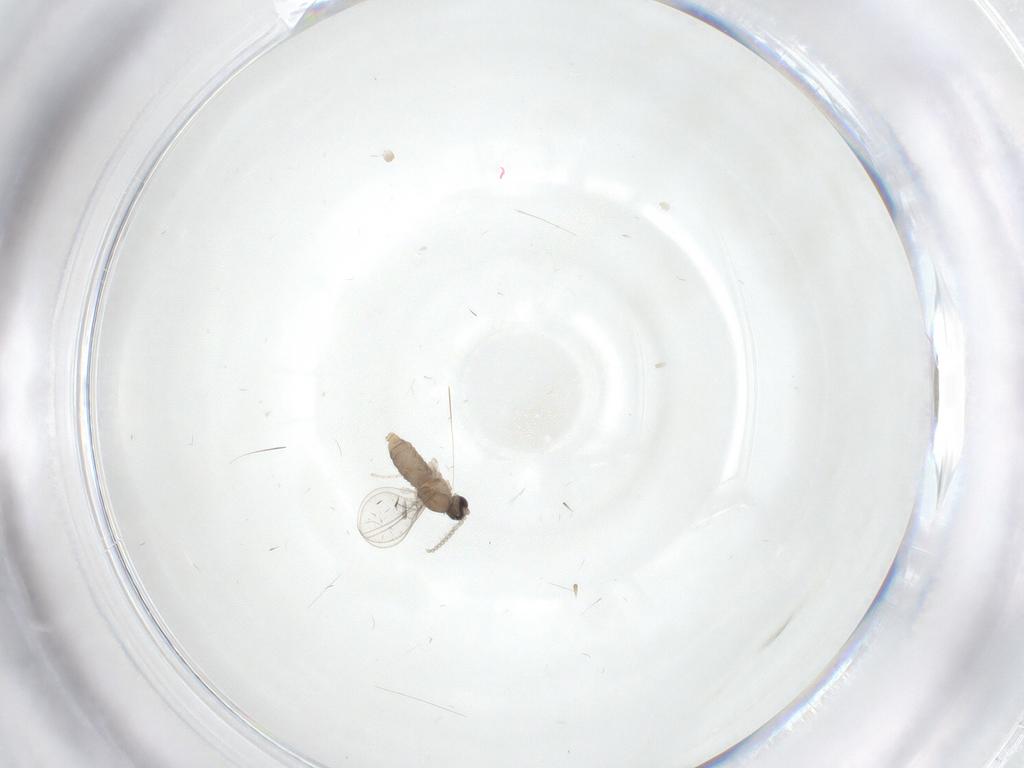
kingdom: Animalia
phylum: Arthropoda
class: Insecta
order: Diptera
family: Cecidomyiidae
